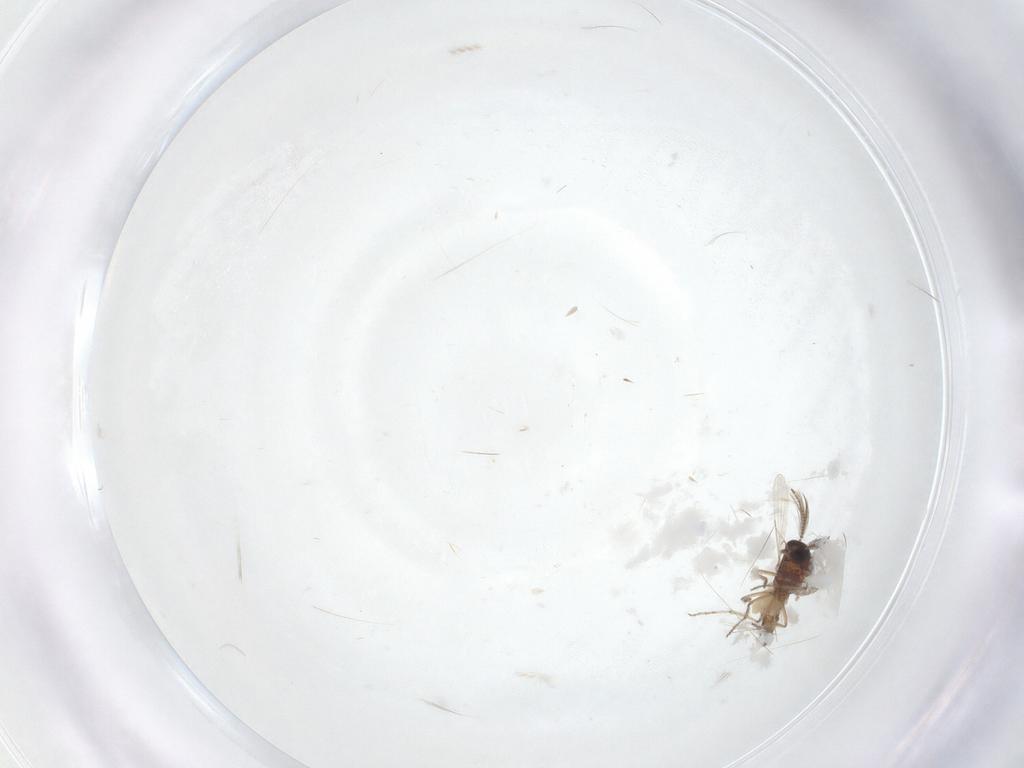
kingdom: Animalia
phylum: Arthropoda
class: Insecta
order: Diptera
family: Ceratopogonidae
